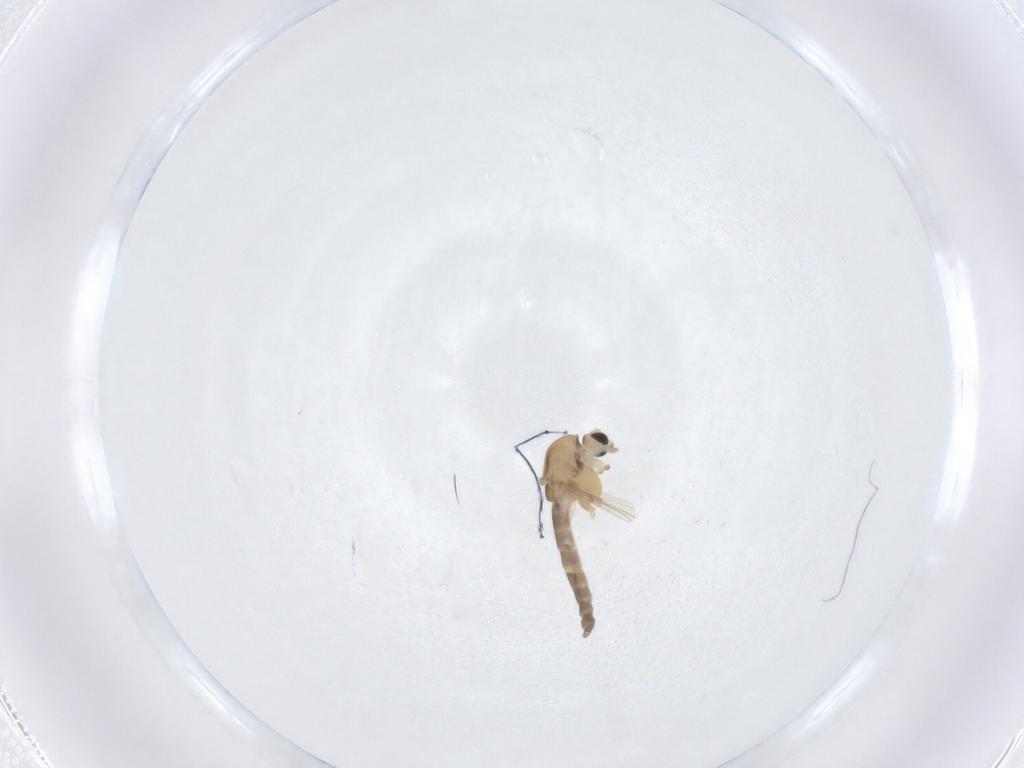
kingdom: Animalia
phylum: Arthropoda
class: Insecta
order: Diptera
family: Chironomidae
